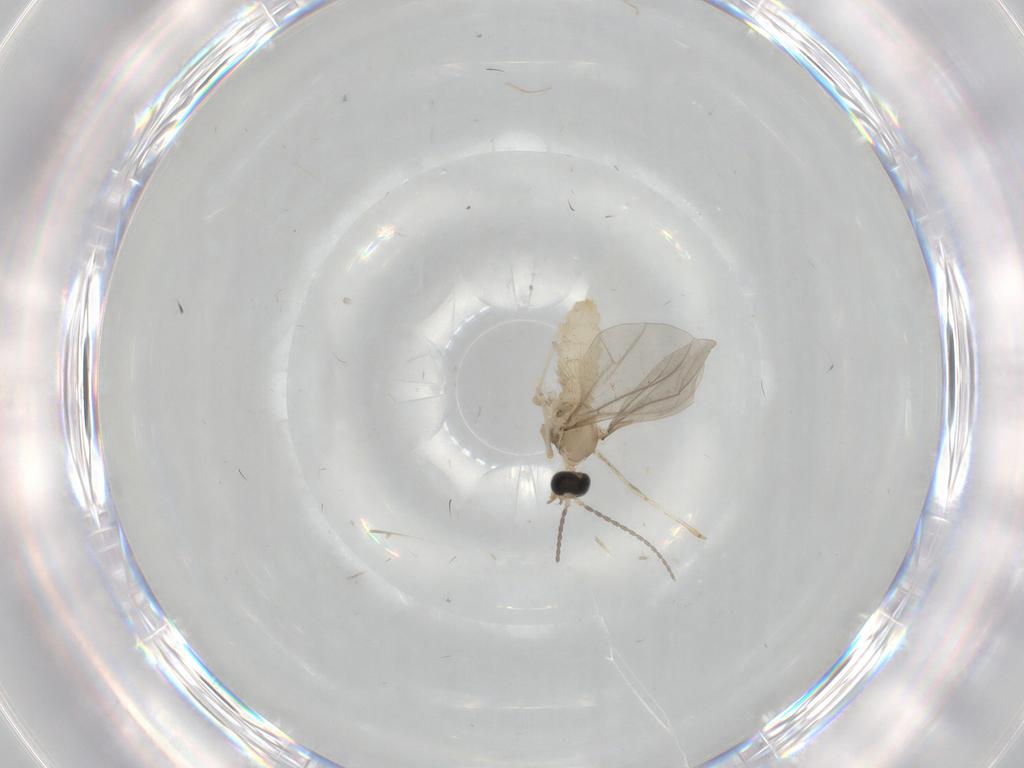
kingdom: Animalia
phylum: Arthropoda
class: Insecta
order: Diptera
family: Cecidomyiidae
